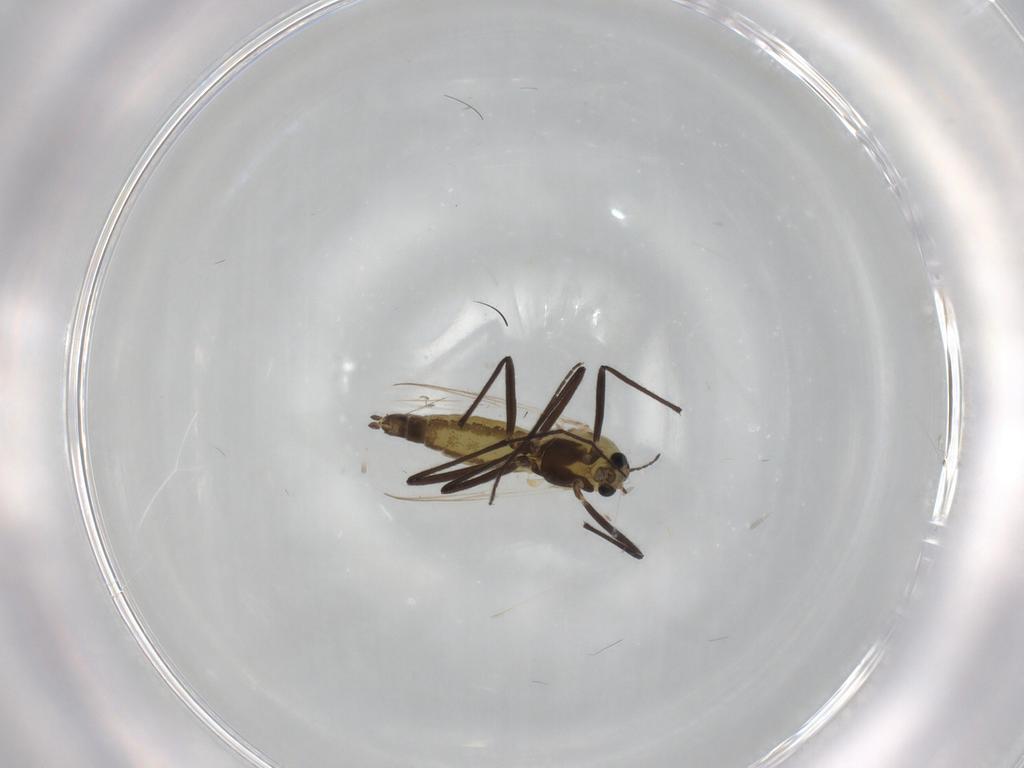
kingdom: Animalia
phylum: Arthropoda
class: Insecta
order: Diptera
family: Chironomidae
